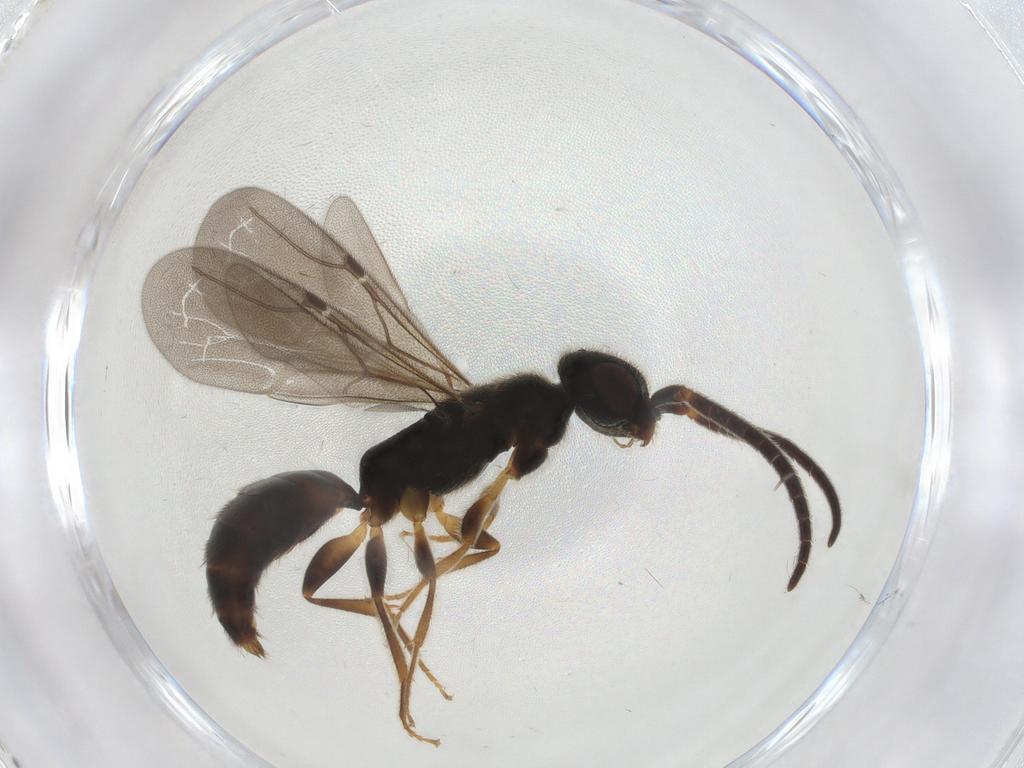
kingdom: Animalia
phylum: Arthropoda
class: Insecta
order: Hymenoptera
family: Bethylidae
